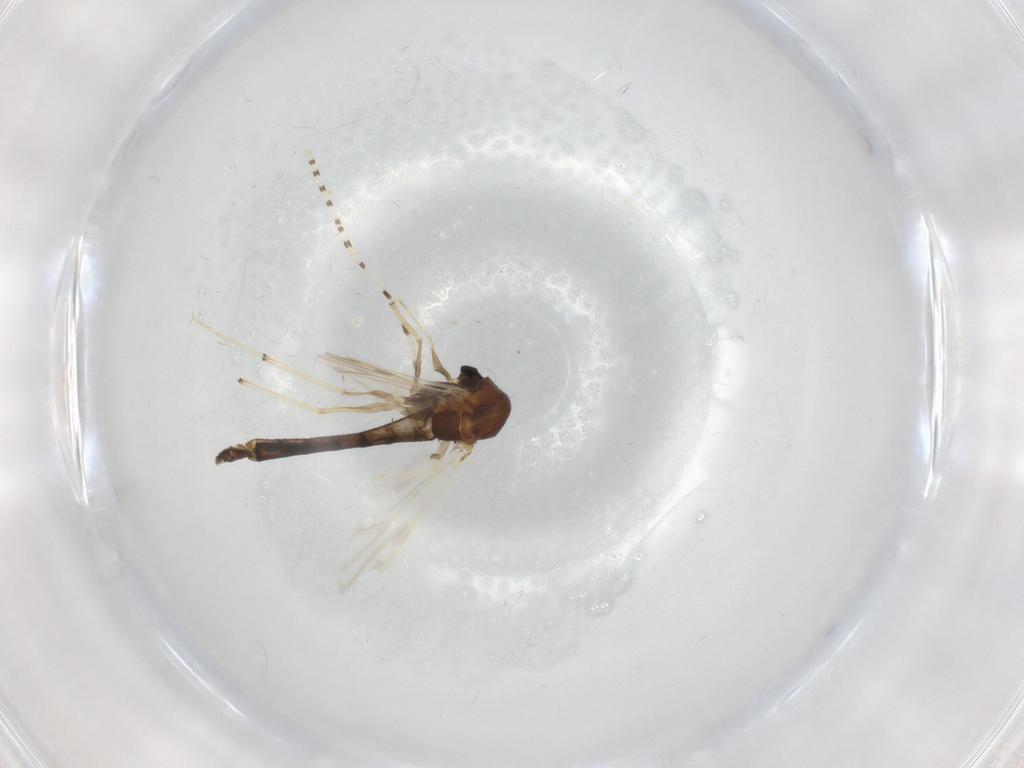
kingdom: Animalia
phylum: Arthropoda
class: Insecta
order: Diptera
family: Chironomidae
